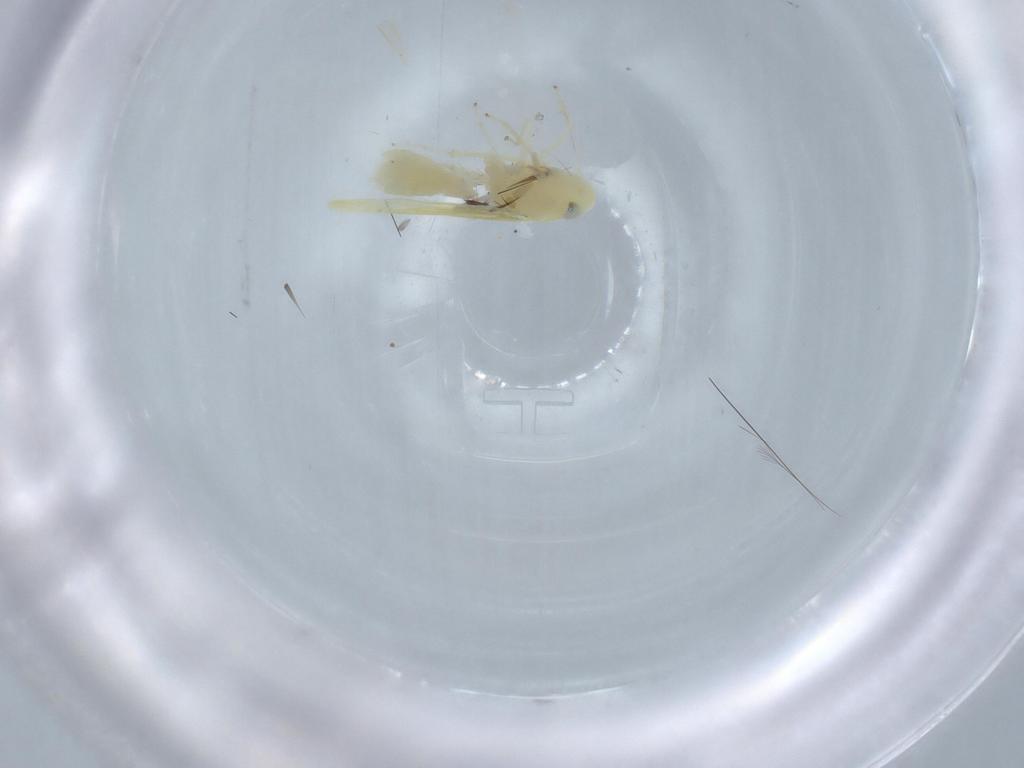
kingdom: Animalia
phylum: Arthropoda
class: Insecta
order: Hemiptera
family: Cicadellidae
